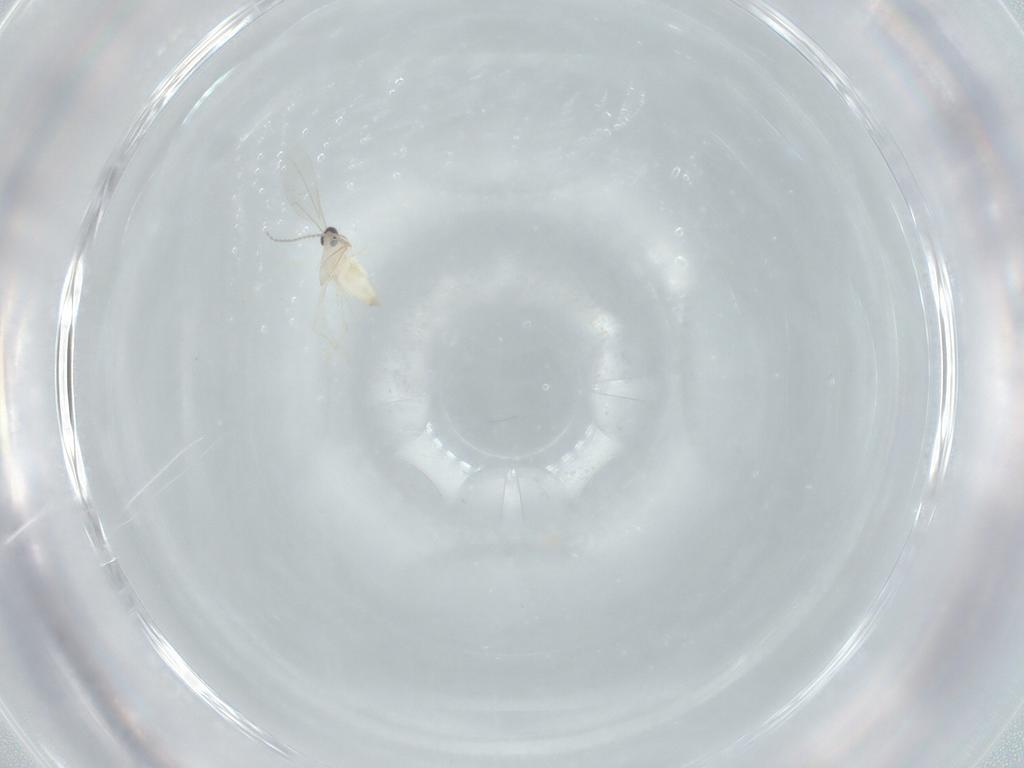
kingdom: Animalia
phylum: Arthropoda
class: Insecta
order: Diptera
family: Cecidomyiidae
